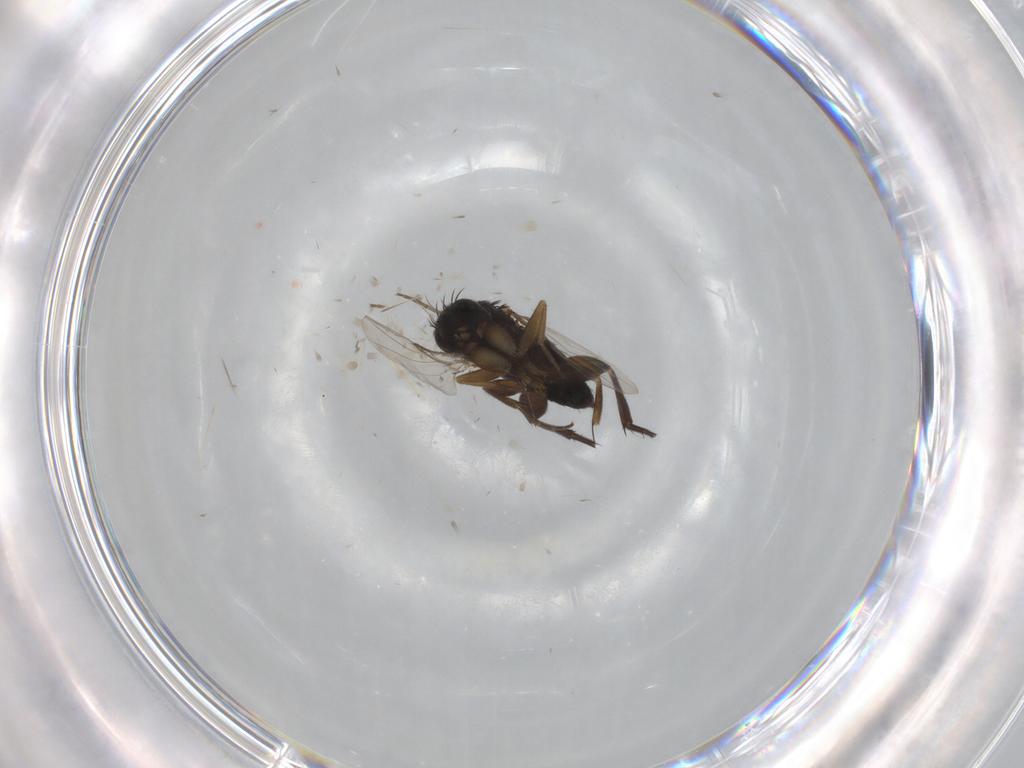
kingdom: Animalia
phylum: Arthropoda
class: Insecta
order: Diptera
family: Phoridae
